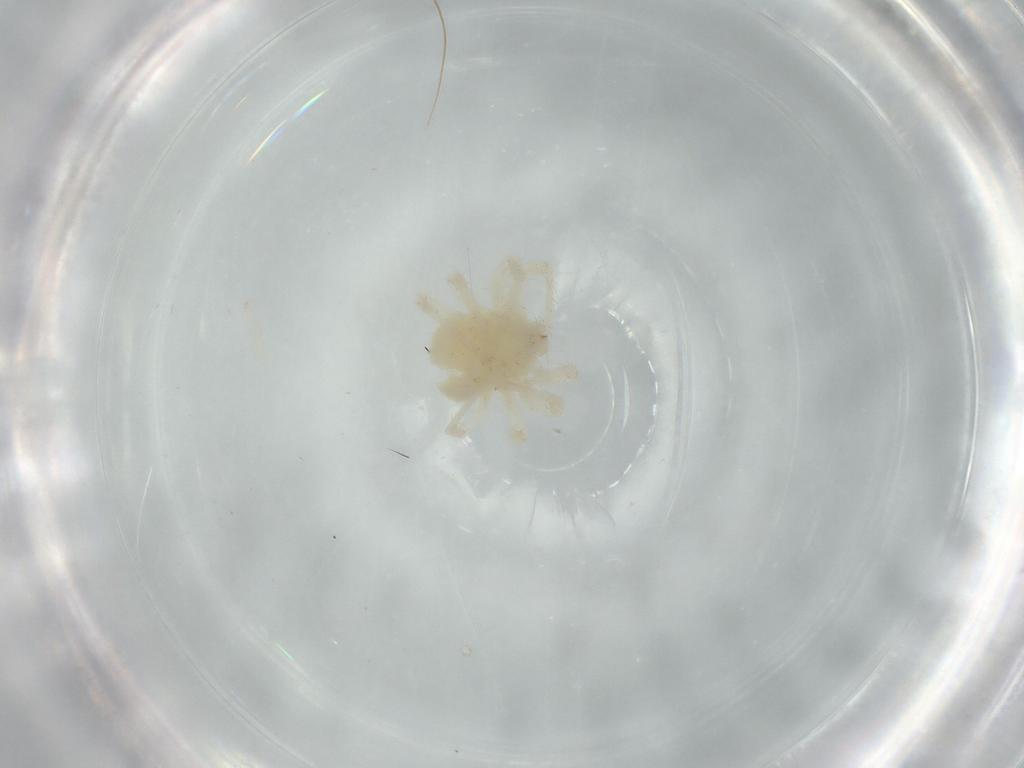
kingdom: Animalia
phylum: Arthropoda
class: Arachnida
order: Trombidiformes
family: Anystidae
